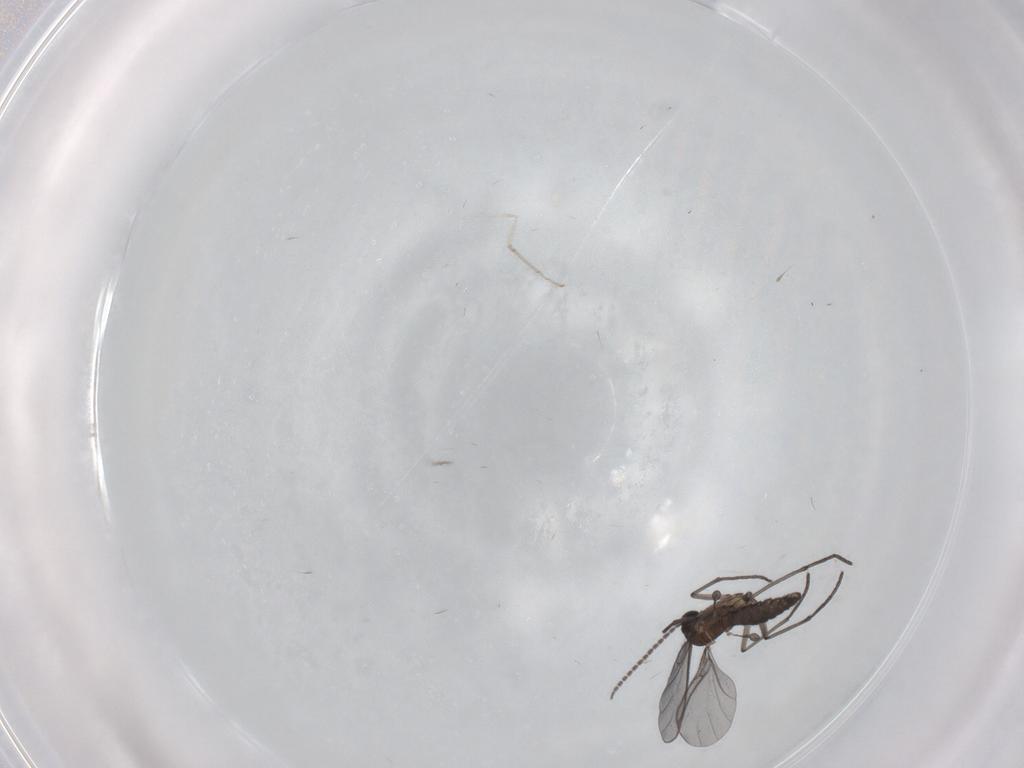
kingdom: Animalia
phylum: Arthropoda
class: Insecta
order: Diptera
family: Sciaridae
